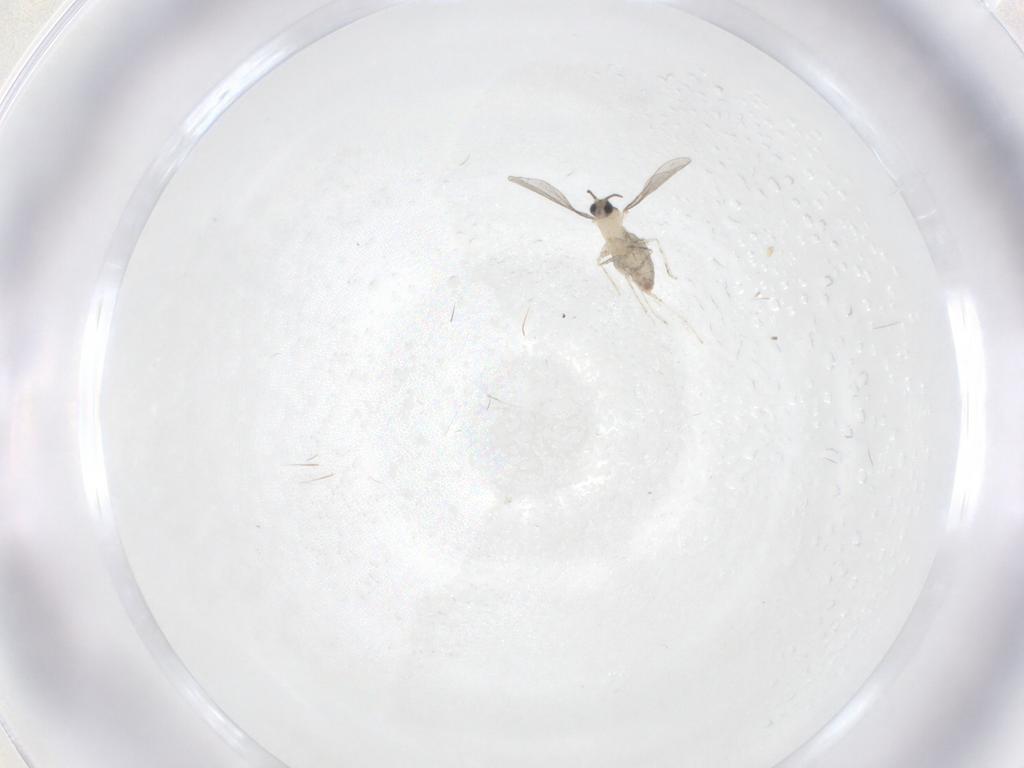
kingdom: Animalia
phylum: Arthropoda
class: Insecta
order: Diptera
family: Cecidomyiidae
